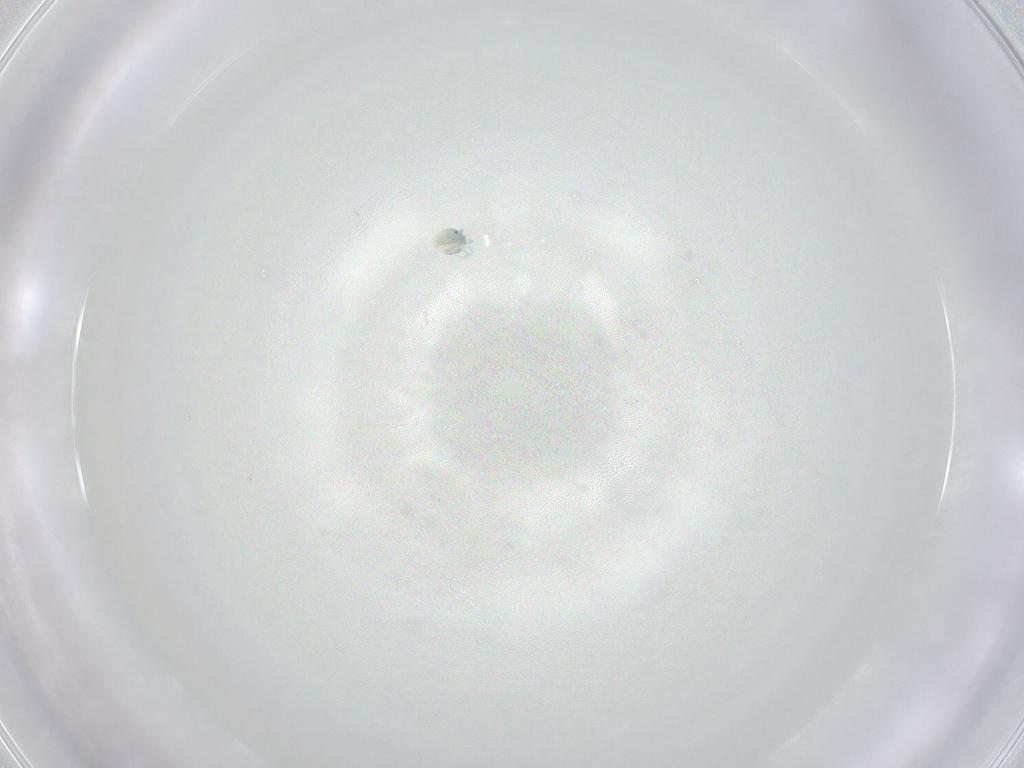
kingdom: Animalia
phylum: Arthropoda
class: Arachnida
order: Trombidiformes
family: Arrenuridae
